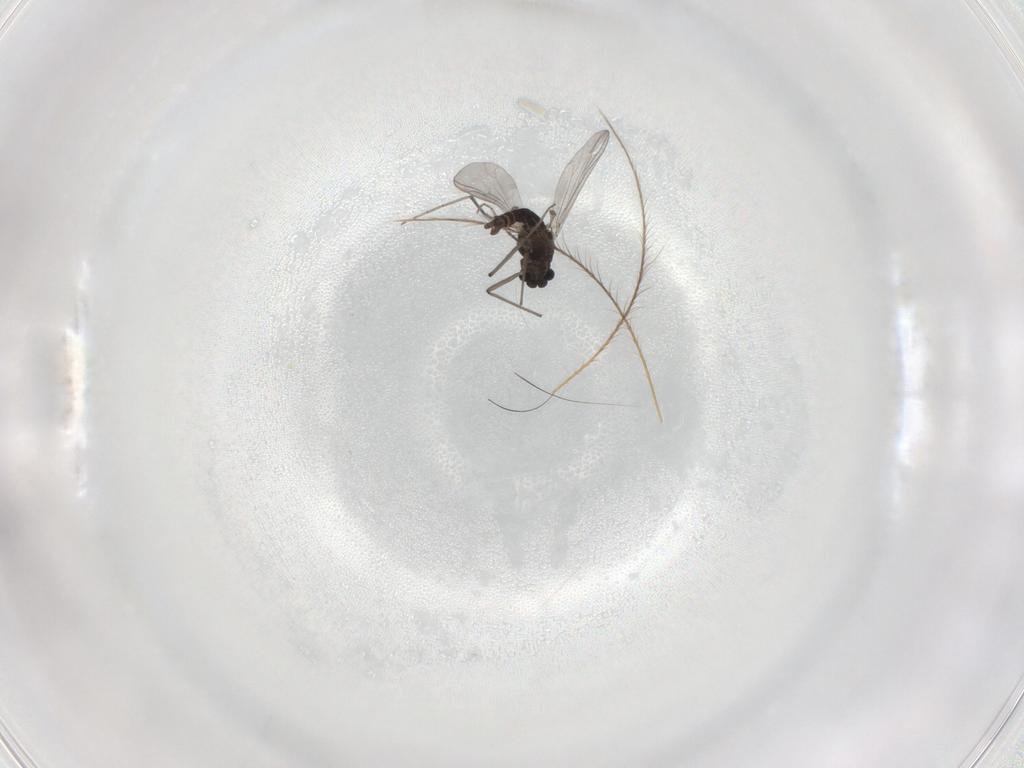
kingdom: Animalia
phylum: Arthropoda
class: Insecta
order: Diptera
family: Chironomidae
